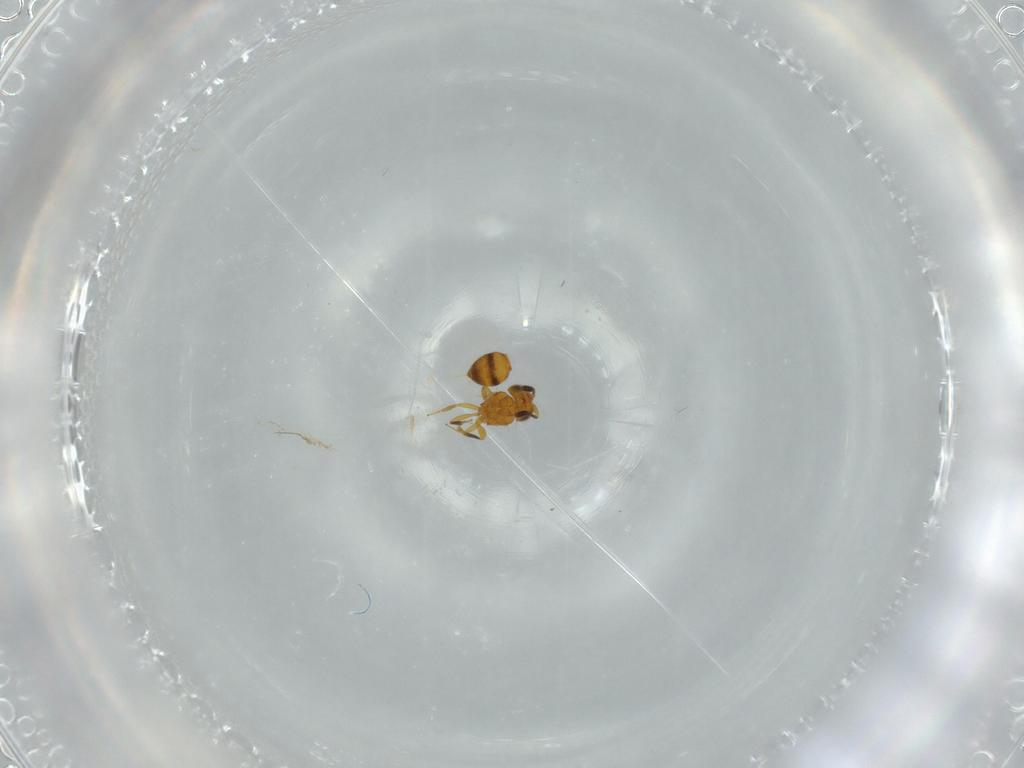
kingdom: Animalia
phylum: Arthropoda
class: Insecta
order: Hymenoptera
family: Scelionidae
